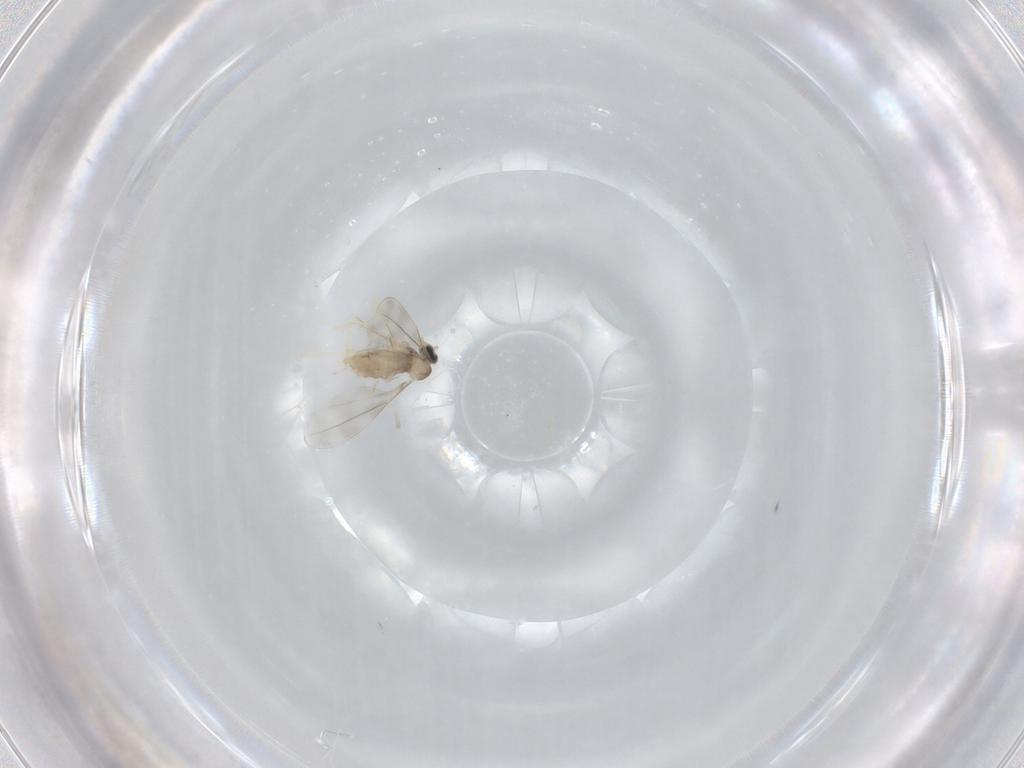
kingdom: Animalia
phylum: Arthropoda
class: Insecta
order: Diptera
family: Cecidomyiidae
